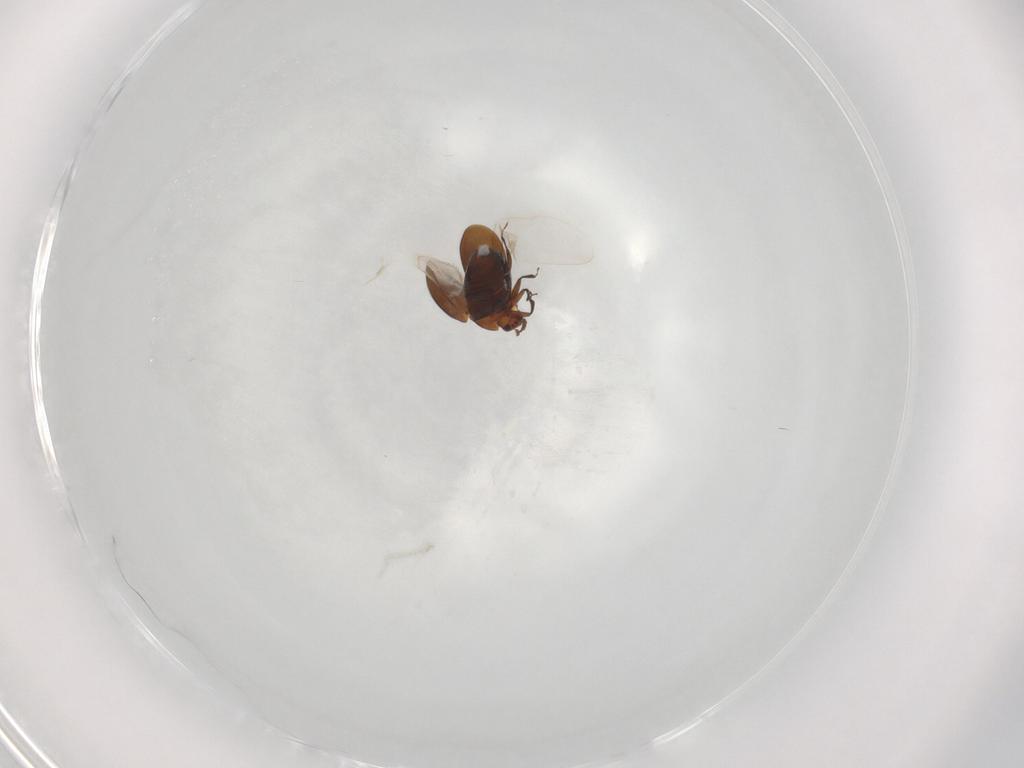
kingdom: Animalia
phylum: Arthropoda
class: Insecta
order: Coleoptera
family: Corylophidae
